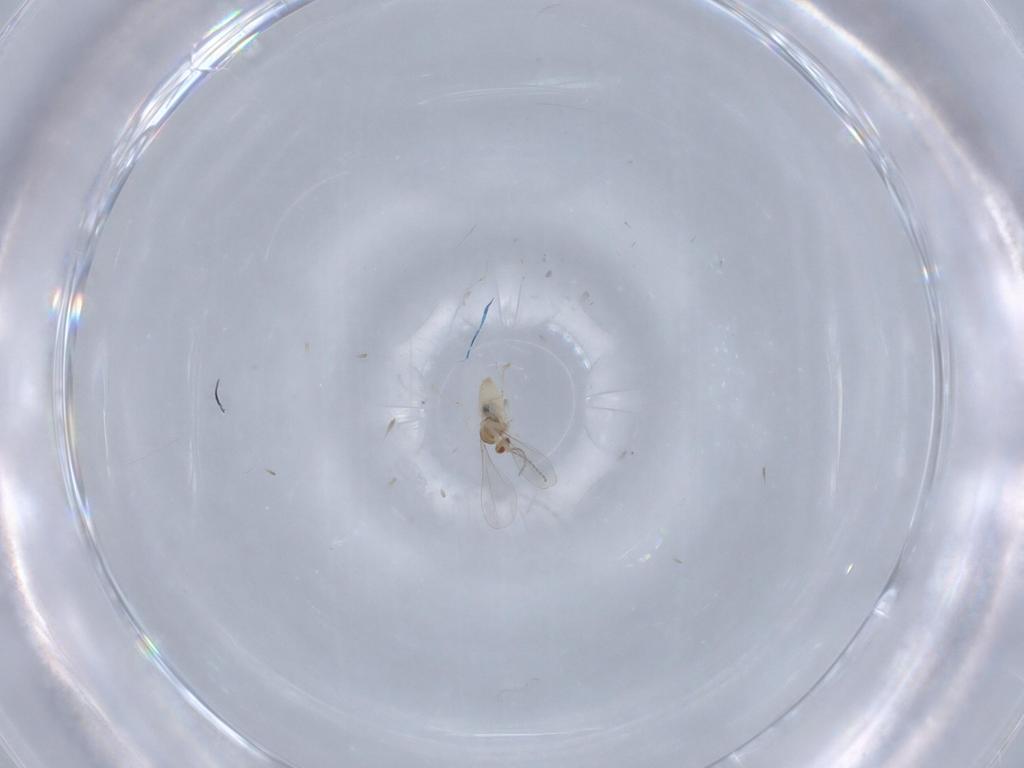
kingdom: Animalia
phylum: Arthropoda
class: Insecta
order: Diptera
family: Cecidomyiidae
